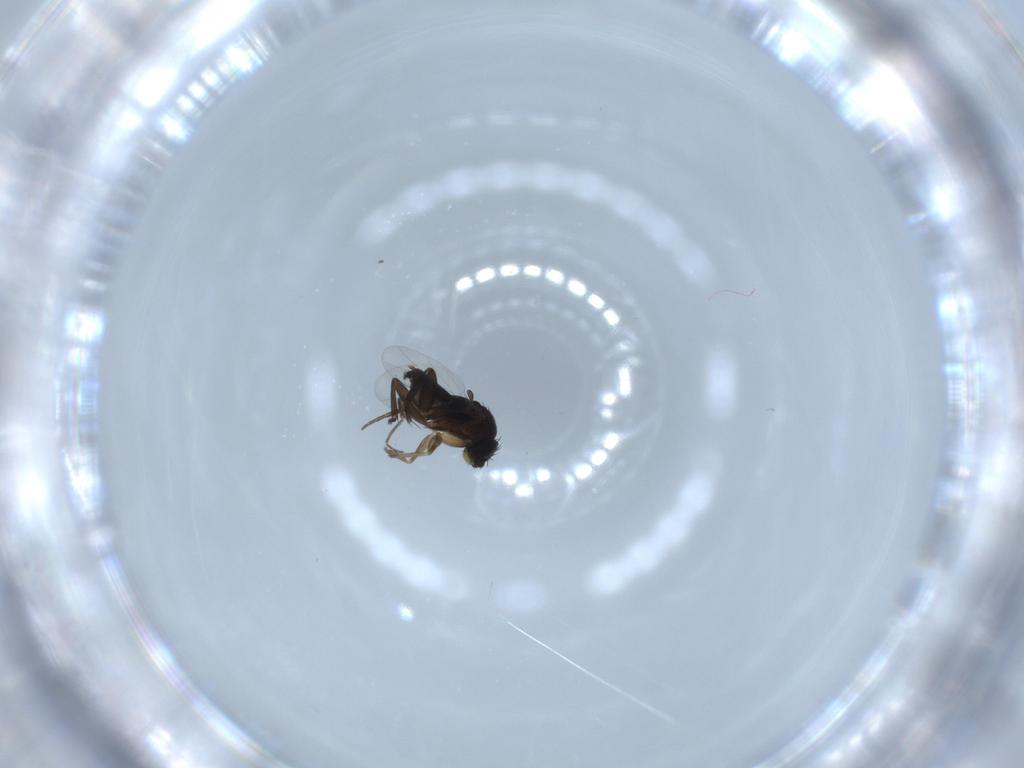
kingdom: Animalia
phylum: Arthropoda
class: Insecta
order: Diptera
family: Phoridae
